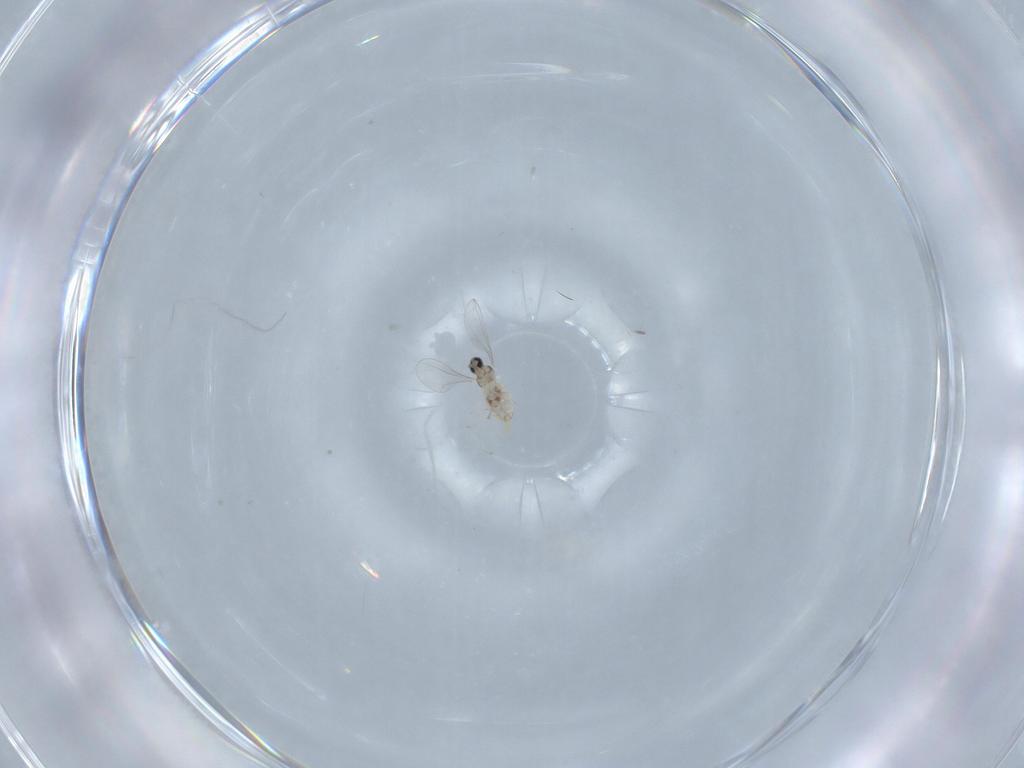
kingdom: Animalia
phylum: Arthropoda
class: Insecta
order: Diptera
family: Cecidomyiidae
